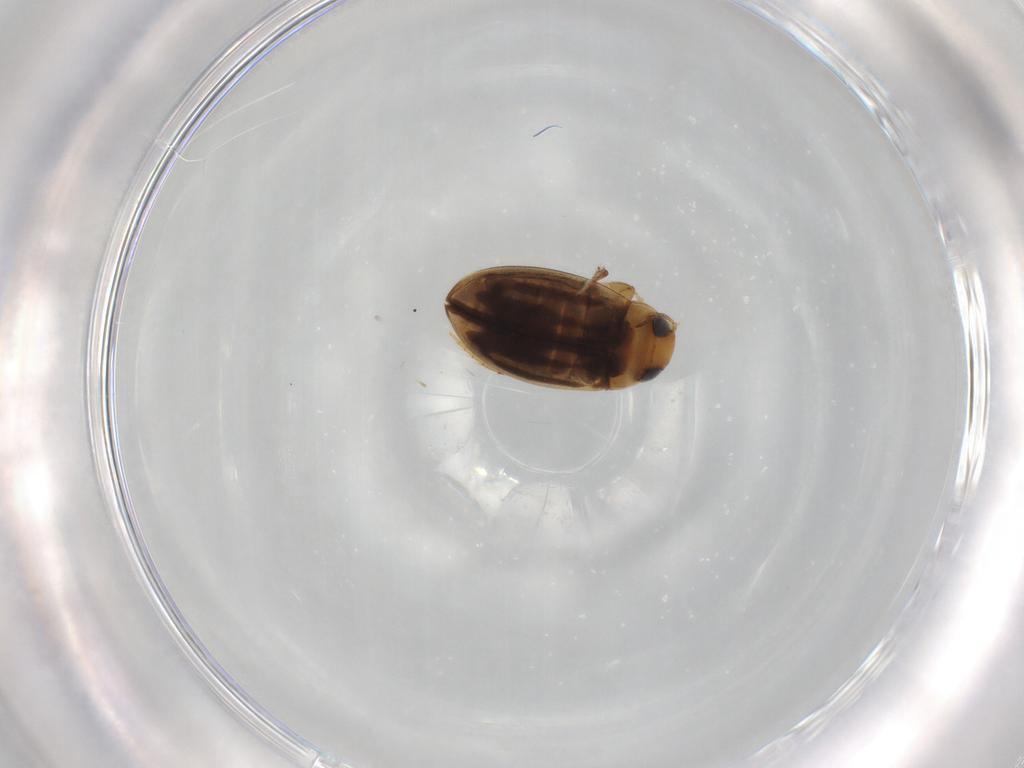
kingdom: Animalia
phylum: Arthropoda
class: Insecta
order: Coleoptera
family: Dytiscidae
